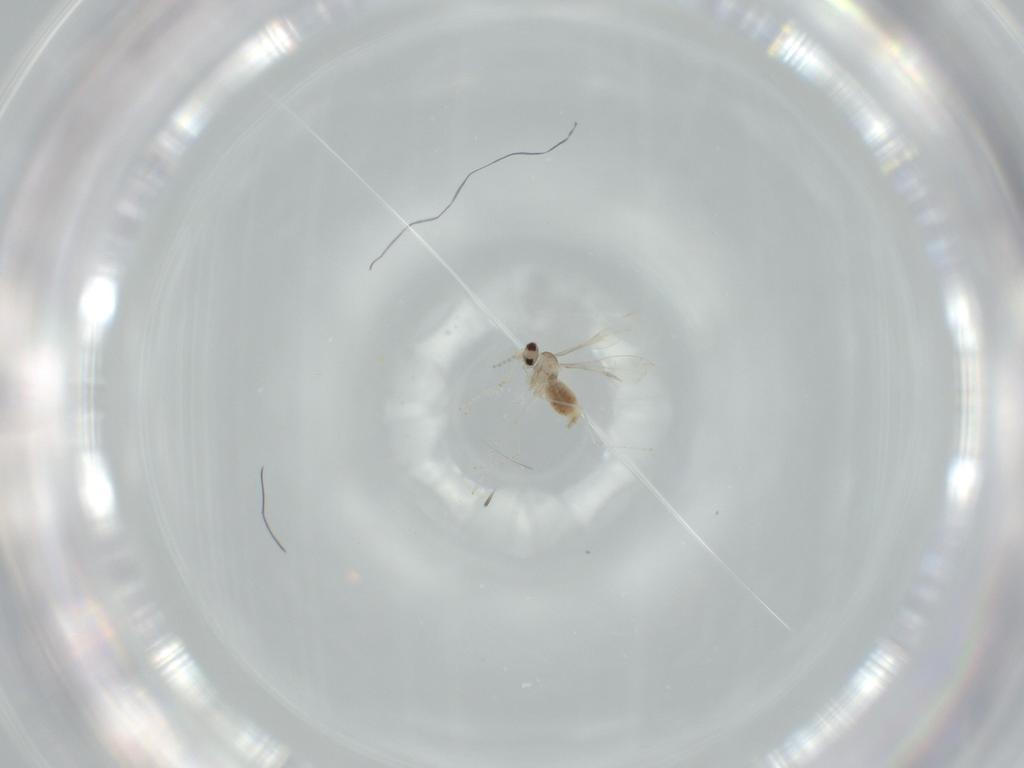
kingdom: Animalia
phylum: Arthropoda
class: Insecta
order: Diptera
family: Cecidomyiidae
